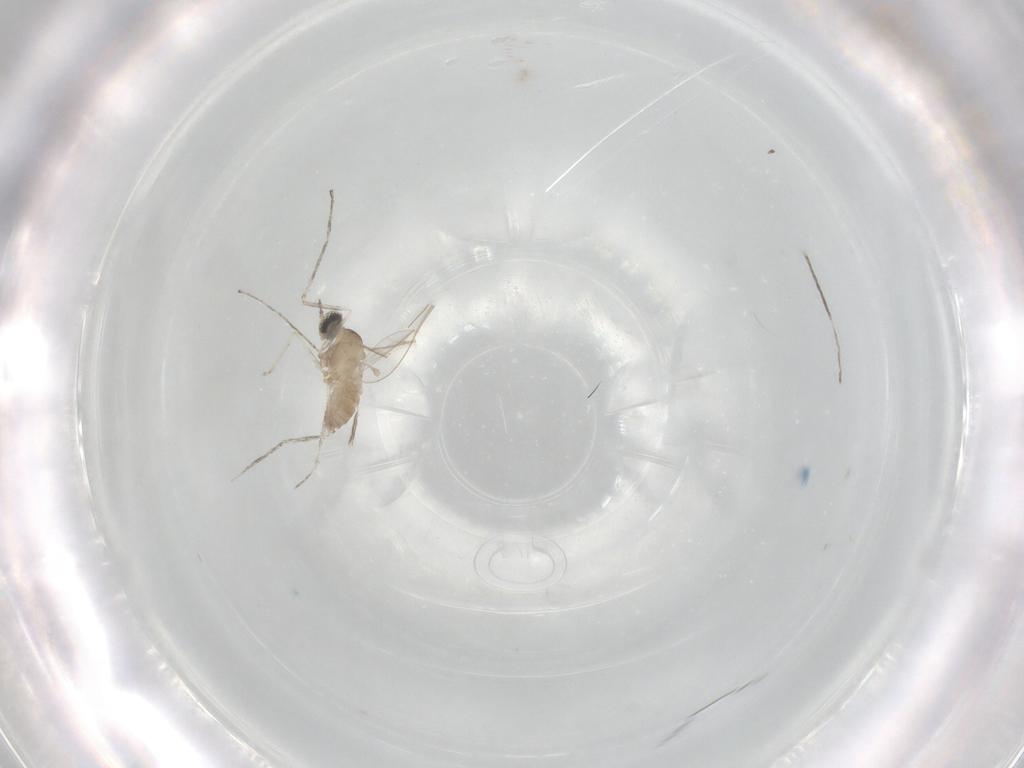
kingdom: Animalia
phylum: Arthropoda
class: Insecta
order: Diptera
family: Cecidomyiidae
